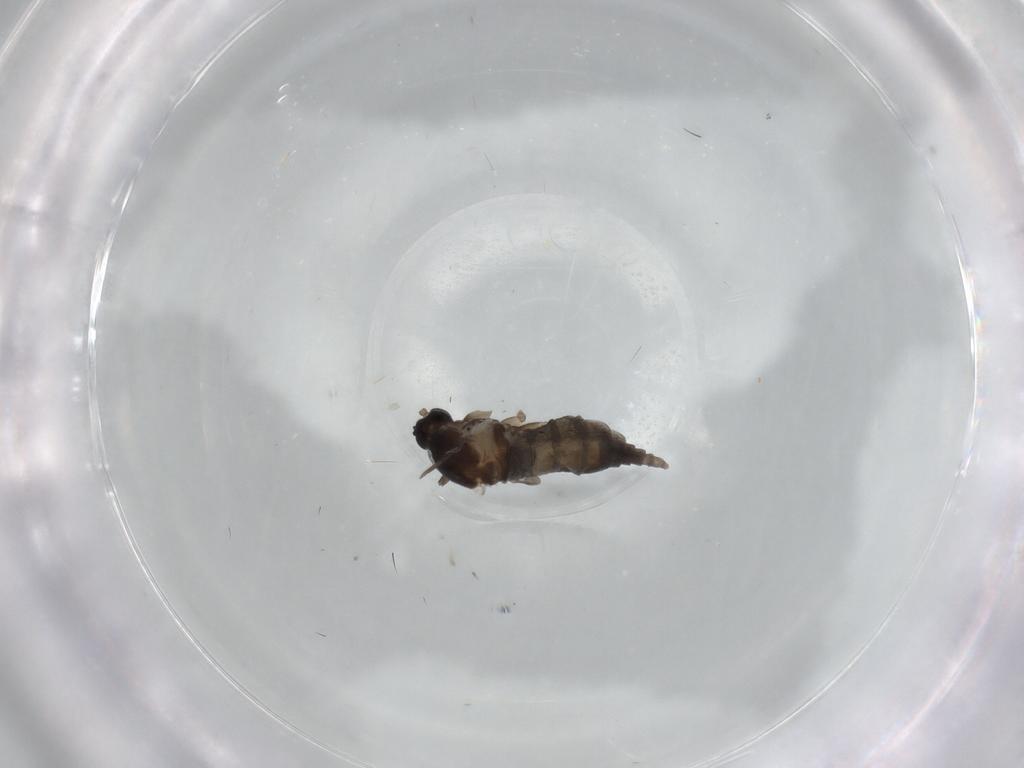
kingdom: Animalia
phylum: Arthropoda
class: Insecta
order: Diptera
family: Cecidomyiidae
